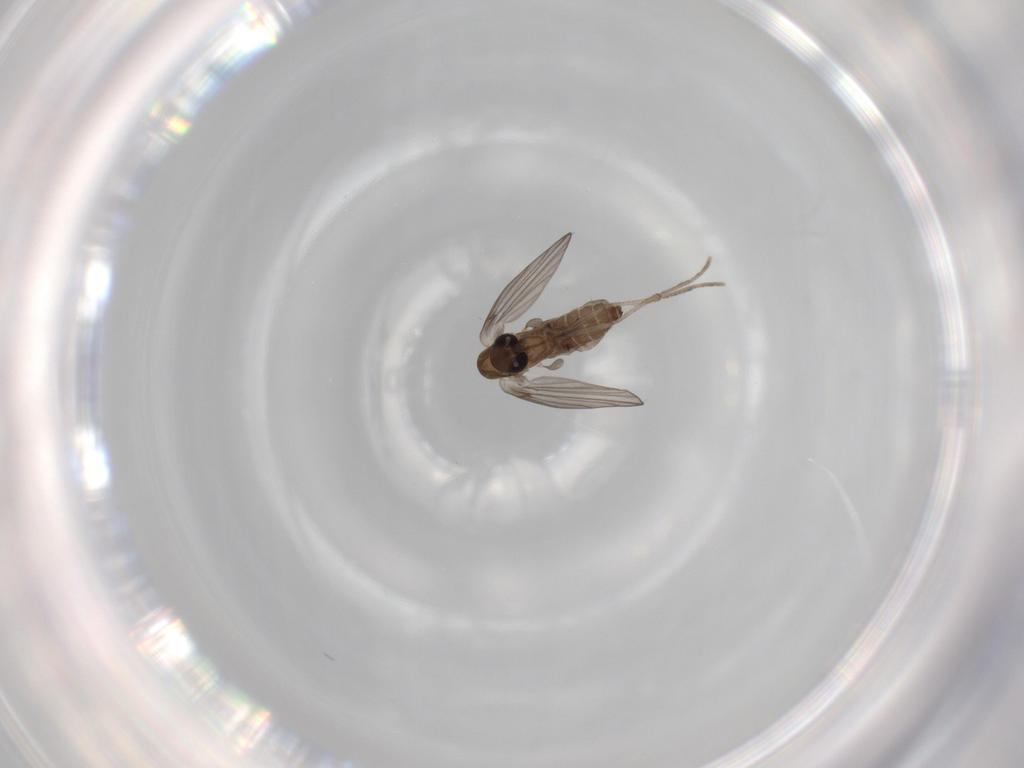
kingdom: Animalia
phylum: Arthropoda
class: Insecta
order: Diptera
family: Psychodidae
